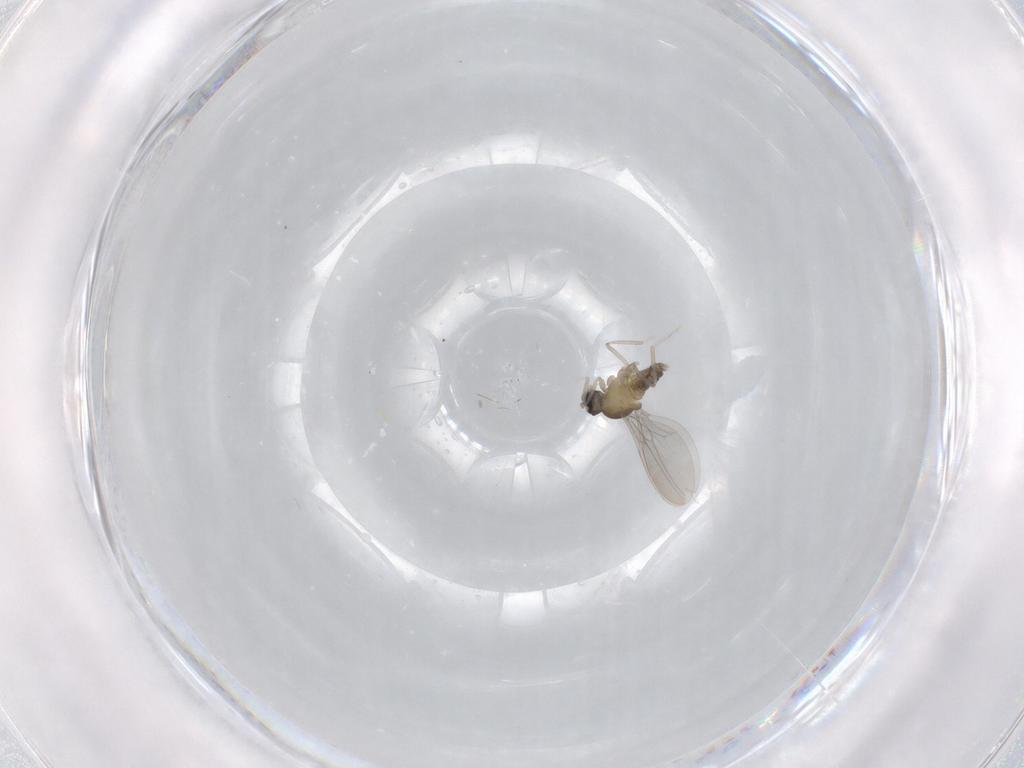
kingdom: Animalia
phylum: Arthropoda
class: Insecta
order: Diptera
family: Cecidomyiidae
